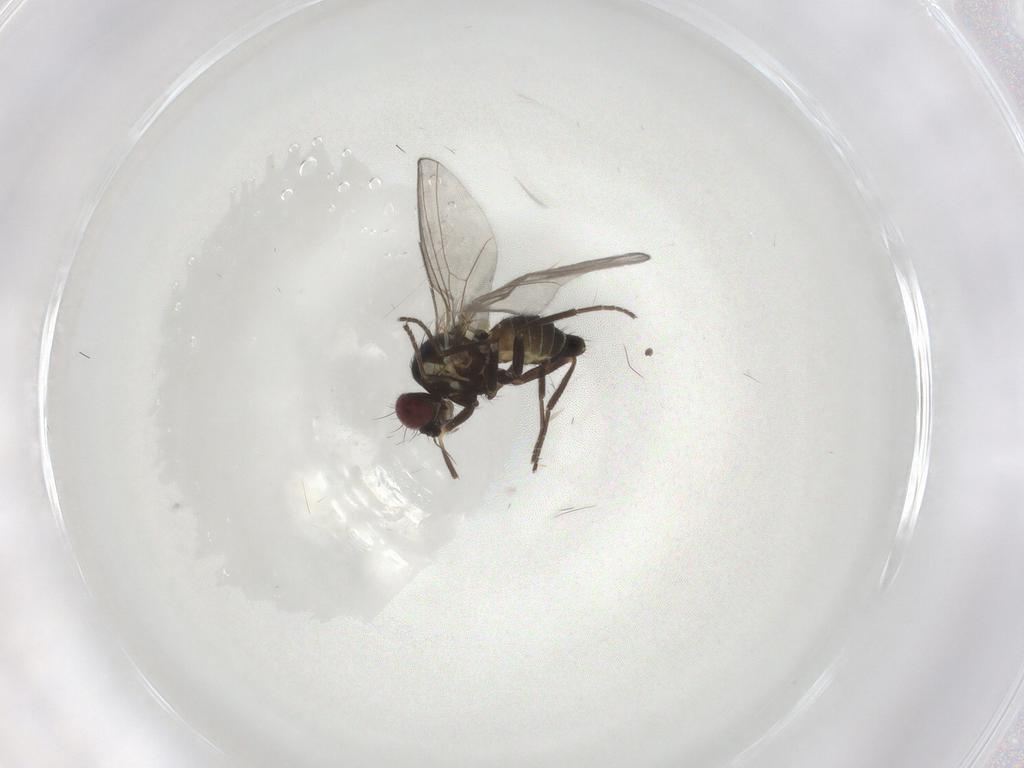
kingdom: Animalia
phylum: Arthropoda
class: Insecta
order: Diptera
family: Agromyzidae
